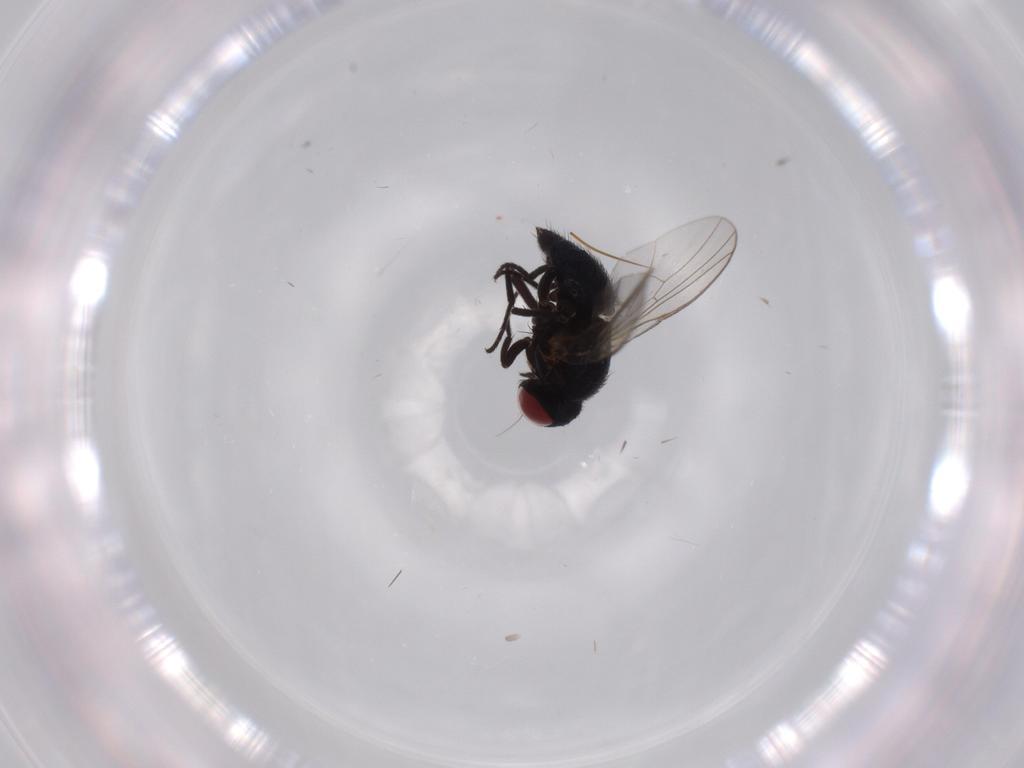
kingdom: Animalia
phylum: Arthropoda
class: Insecta
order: Diptera
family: Agromyzidae
